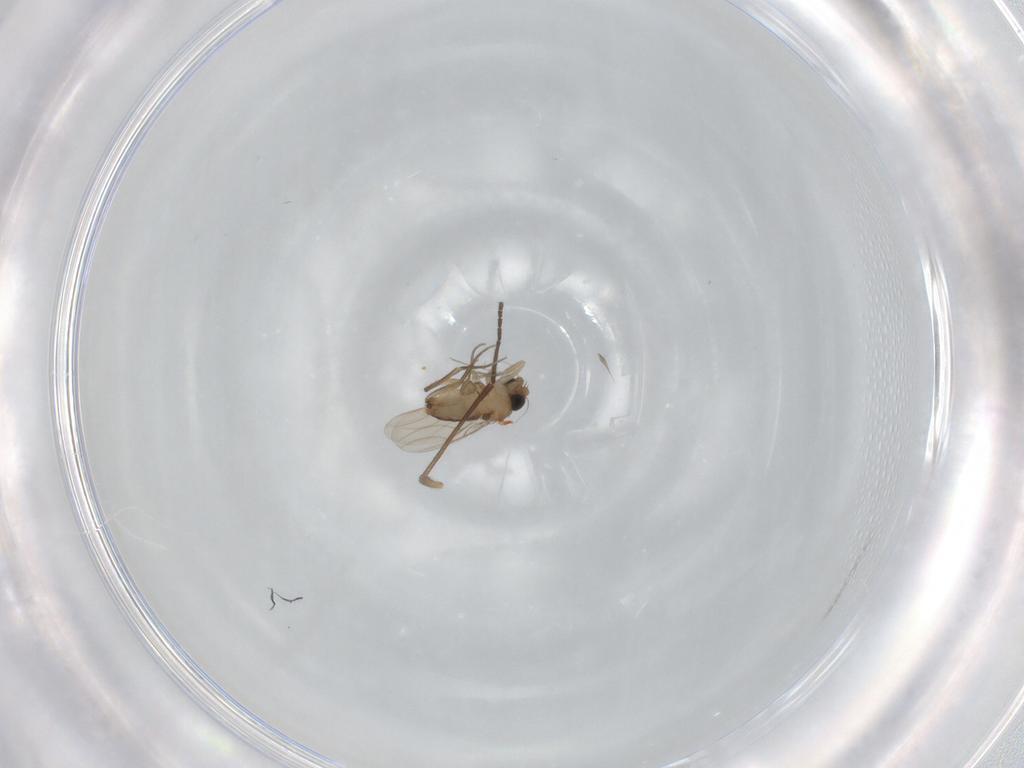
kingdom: Animalia
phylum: Arthropoda
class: Insecta
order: Diptera
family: Phoridae
